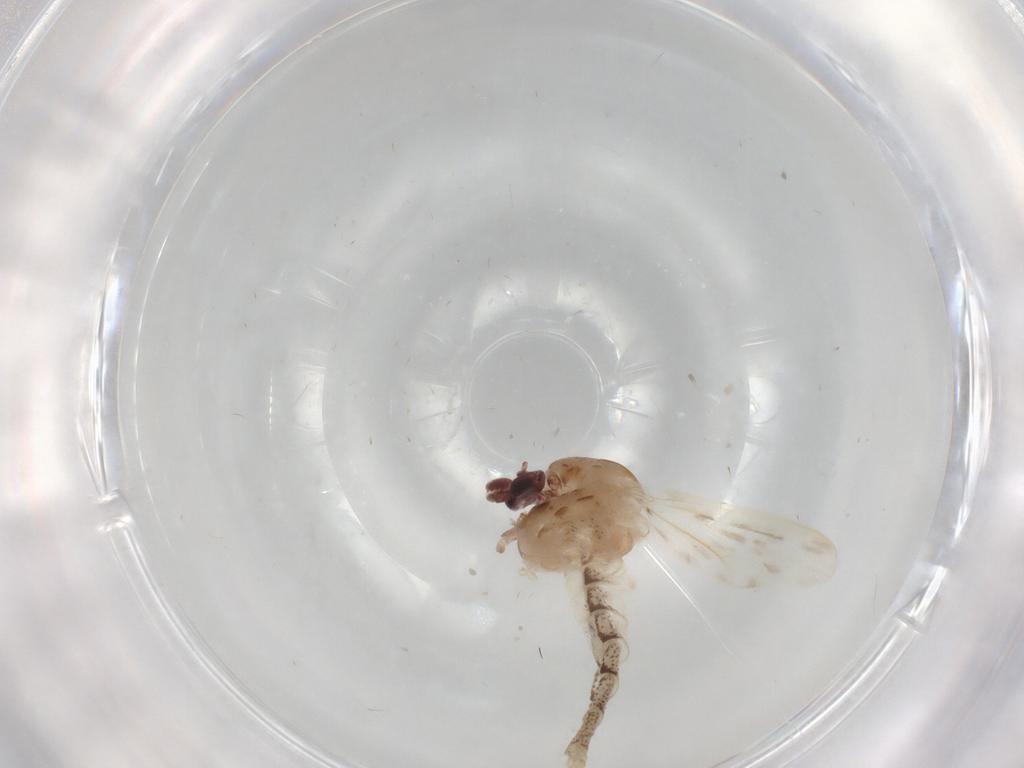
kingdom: Animalia
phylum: Arthropoda
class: Insecta
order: Diptera
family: Chaoboridae
